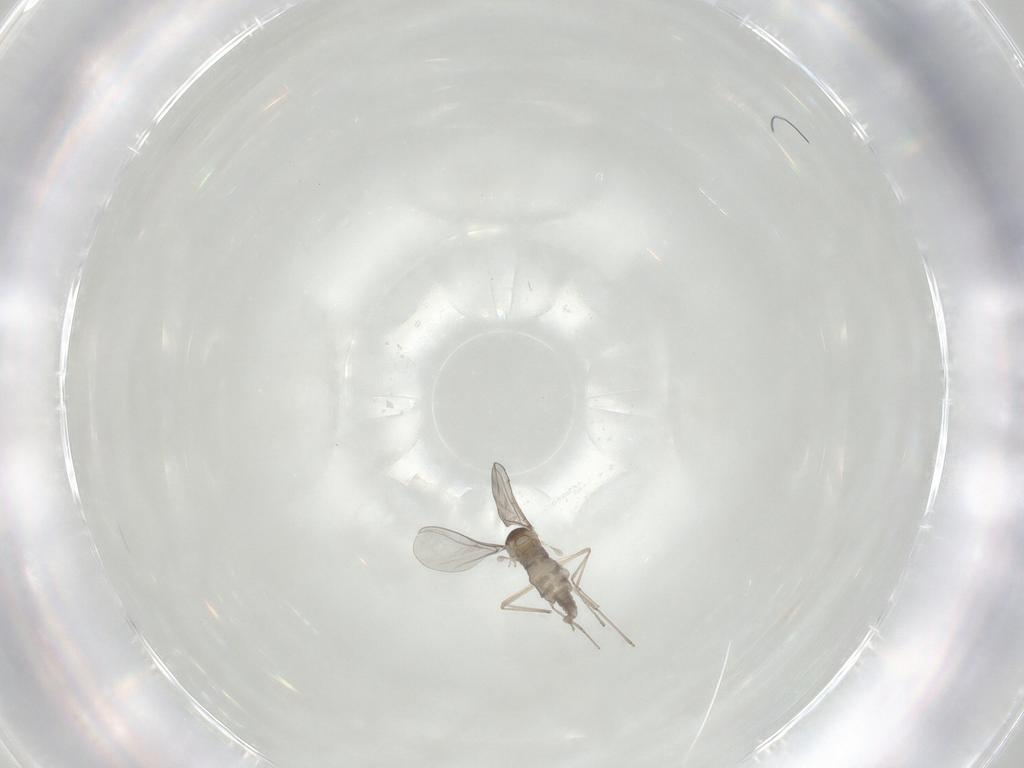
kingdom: Animalia
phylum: Arthropoda
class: Insecta
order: Diptera
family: Cecidomyiidae
